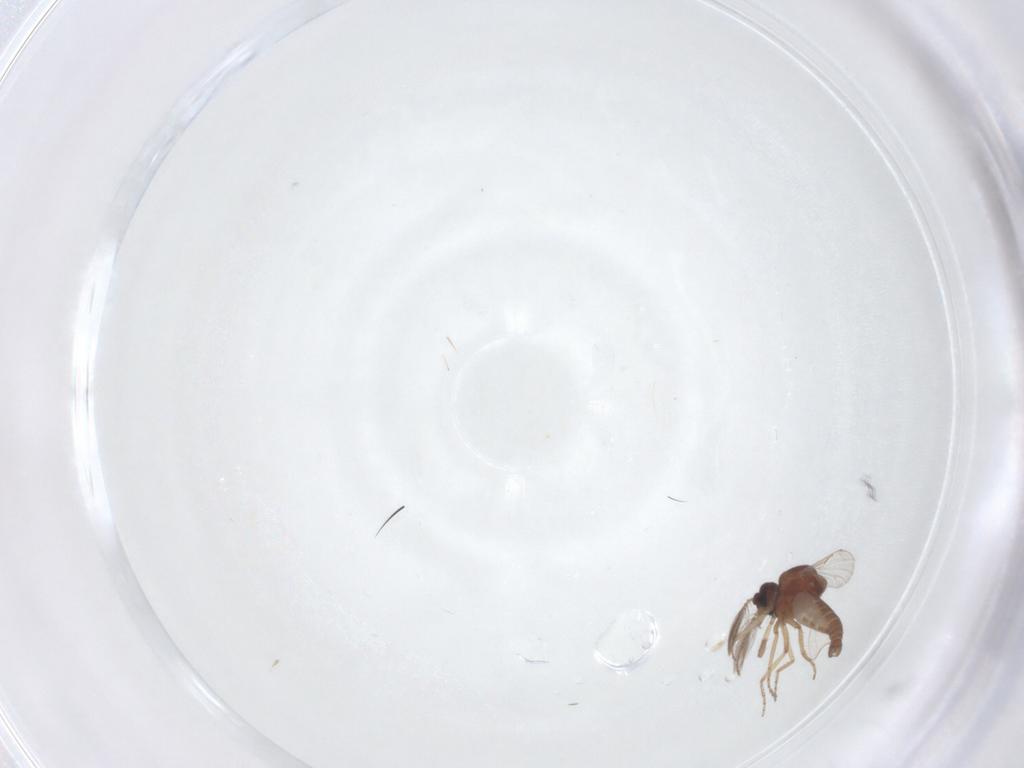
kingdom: Animalia
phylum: Arthropoda
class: Insecta
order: Diptera
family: Ceratopogonidae
